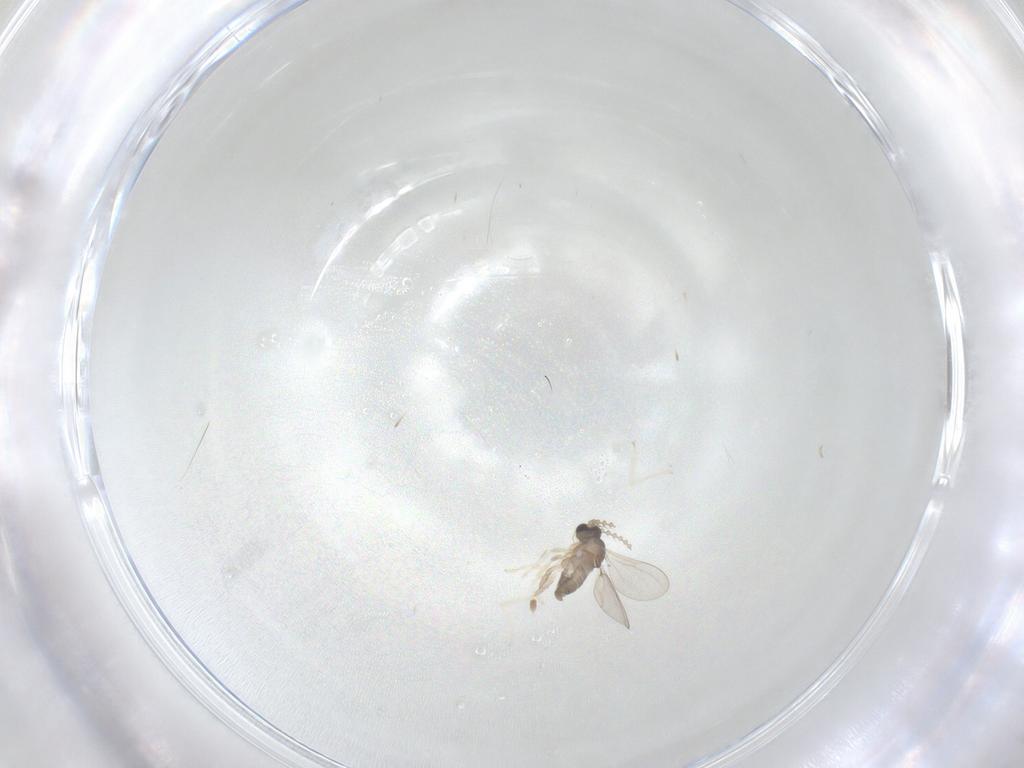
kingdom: Animalia
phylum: Arthropoda
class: Insecta
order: Diptera
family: Cecidomyiidae
